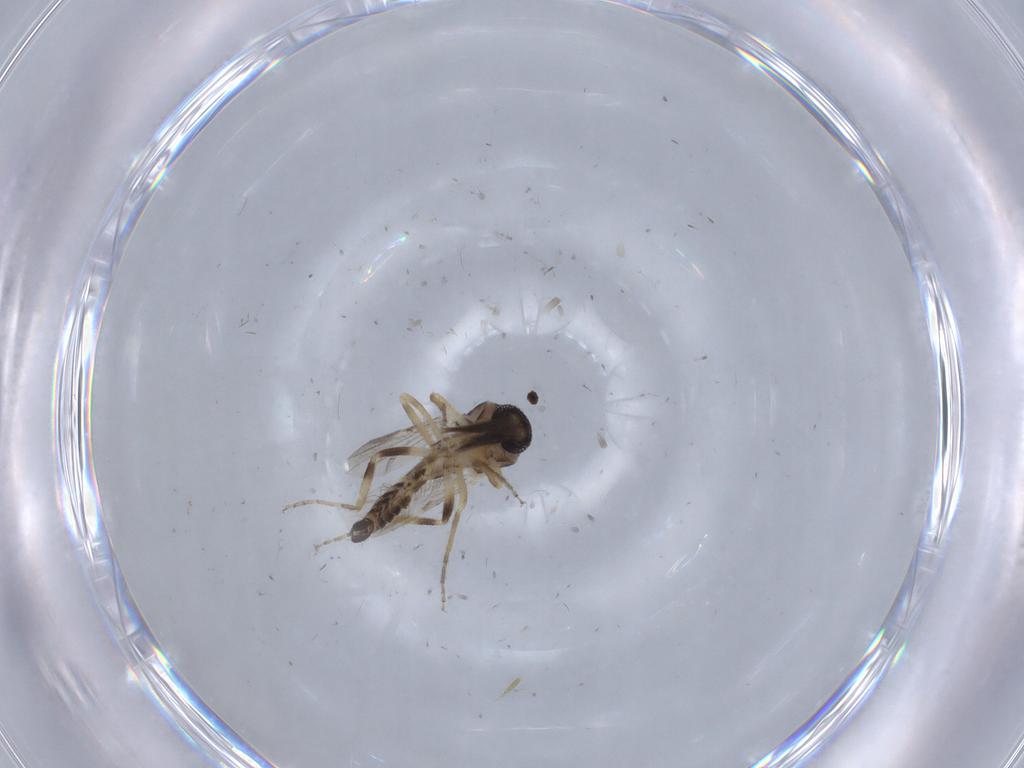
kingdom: Animalia
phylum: Arthropoda
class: Insecta
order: Diptera
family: Ceratopogonidae
